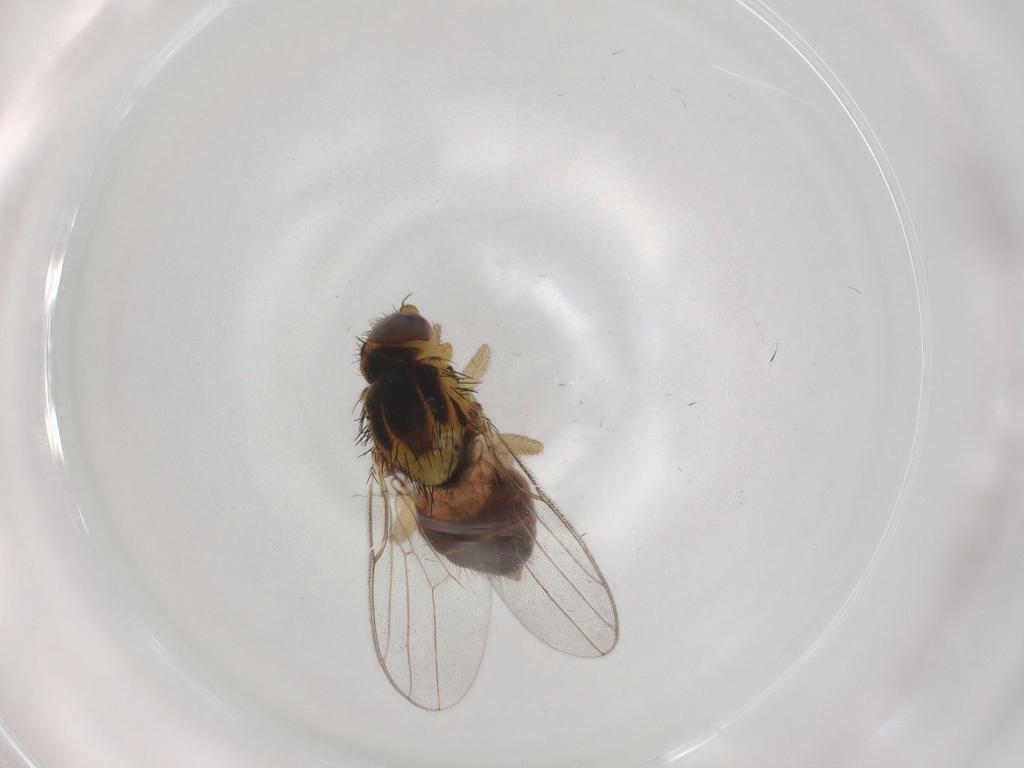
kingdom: Animalia
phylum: Arthropoda
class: Insecta
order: Diptera
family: Chloropidae
